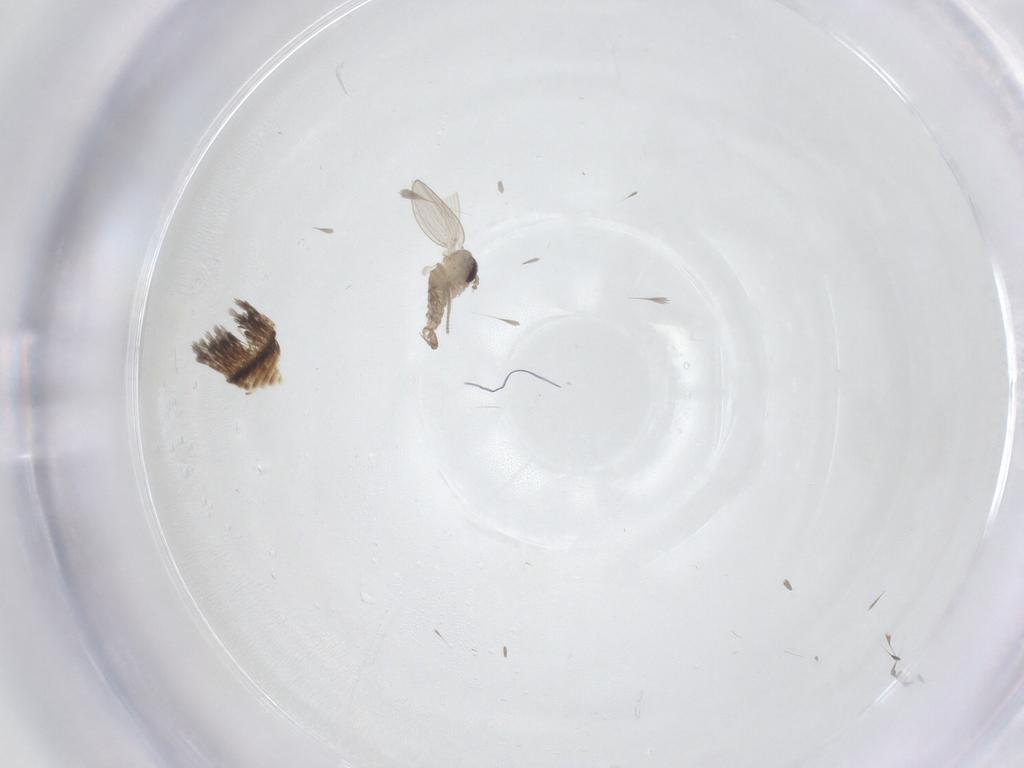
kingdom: Animalia
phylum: Arthropoda
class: Insecta
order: Diptera
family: Psychodidae
